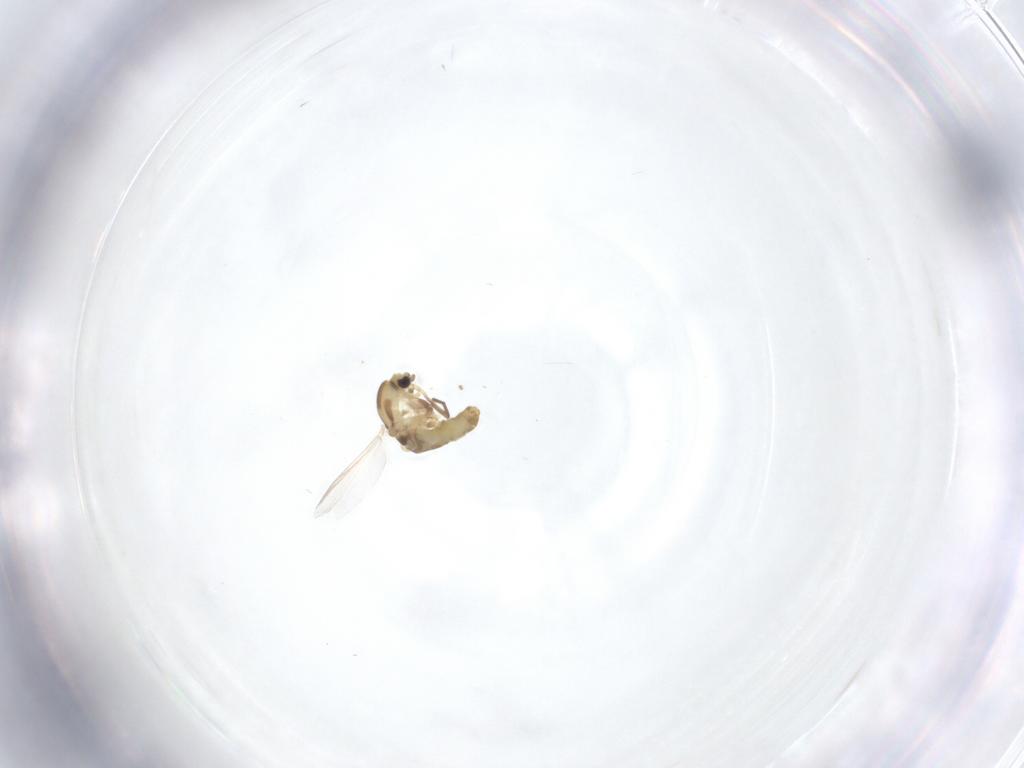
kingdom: Animalia
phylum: Arthropoda
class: Insecta
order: Diptera
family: Chironomidae
